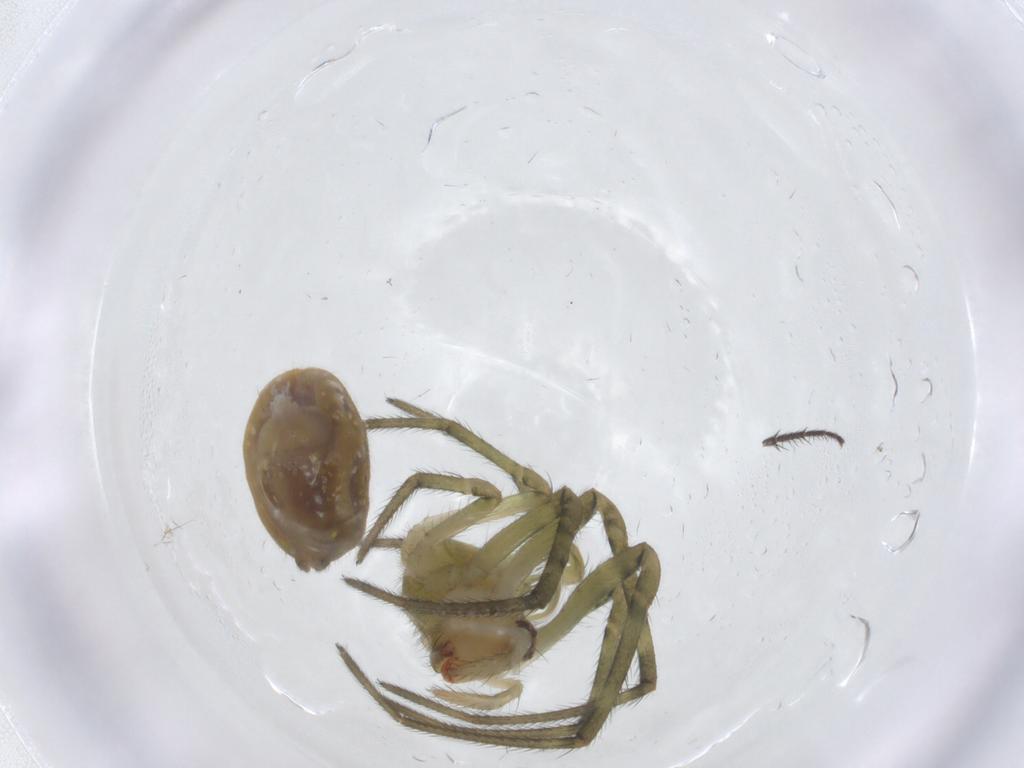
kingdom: Animalia
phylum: Arthropoda
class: Arachnida
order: Araneae
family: Tetragnathidae
